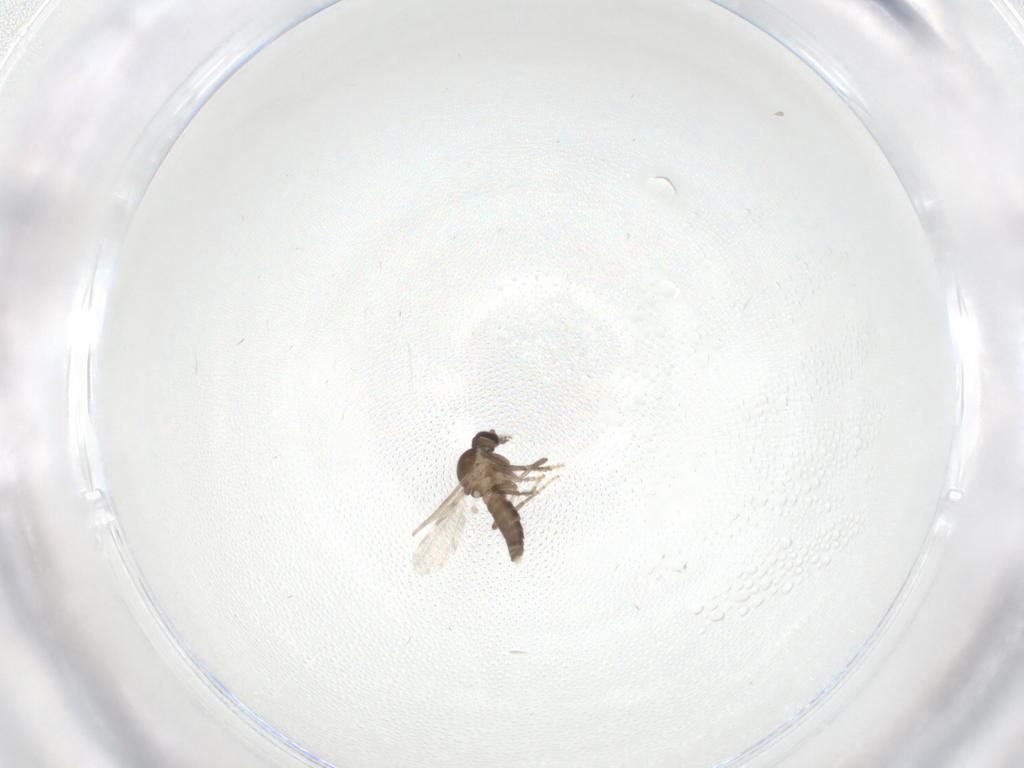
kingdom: Animalia
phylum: Arthropoda
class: Insecta
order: Diptera
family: Ceratopogonidae
